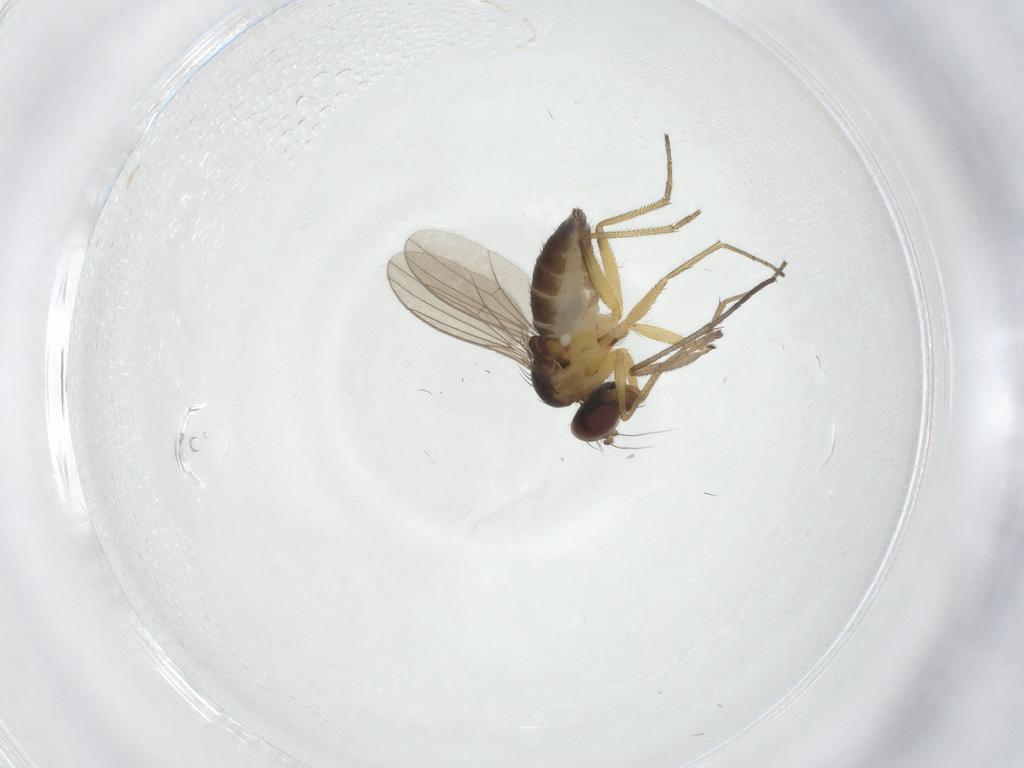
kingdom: Animalia
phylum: Arthropoda
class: Insecta
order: Diptera
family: Dolichopodidae
